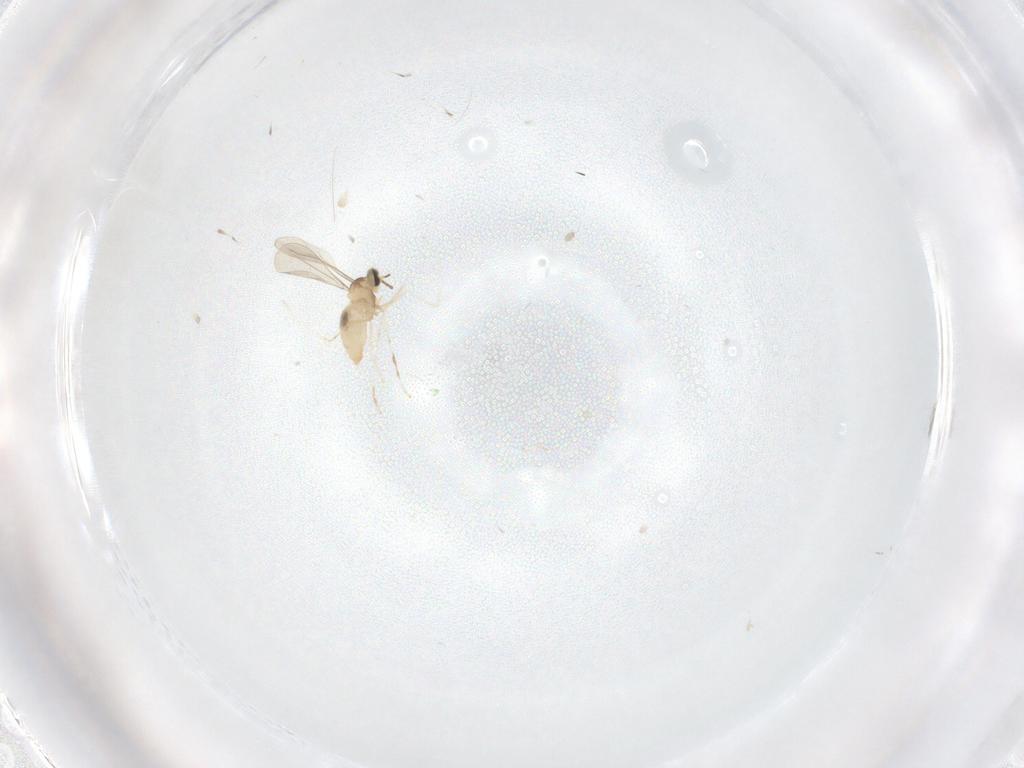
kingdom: Animalia
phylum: Arthropoda
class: Insecta
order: Diptera
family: Cecidomyiidae
